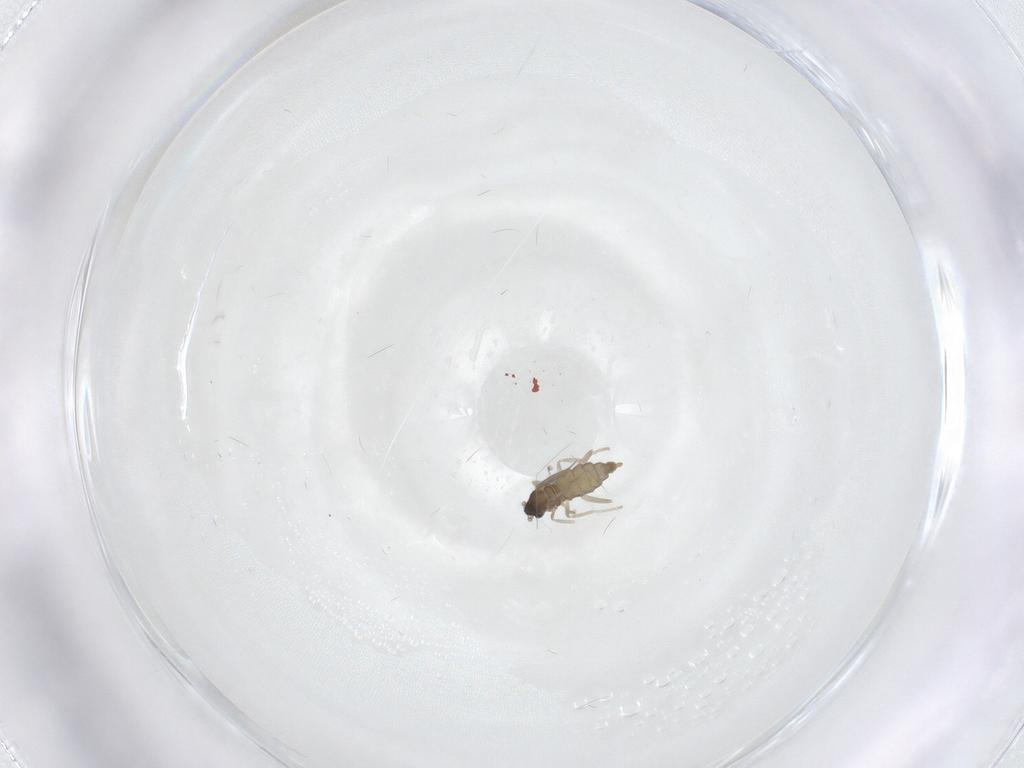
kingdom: Animalia
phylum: Arthropoda
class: Insecta
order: Diptera
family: Cecidomyiidae
